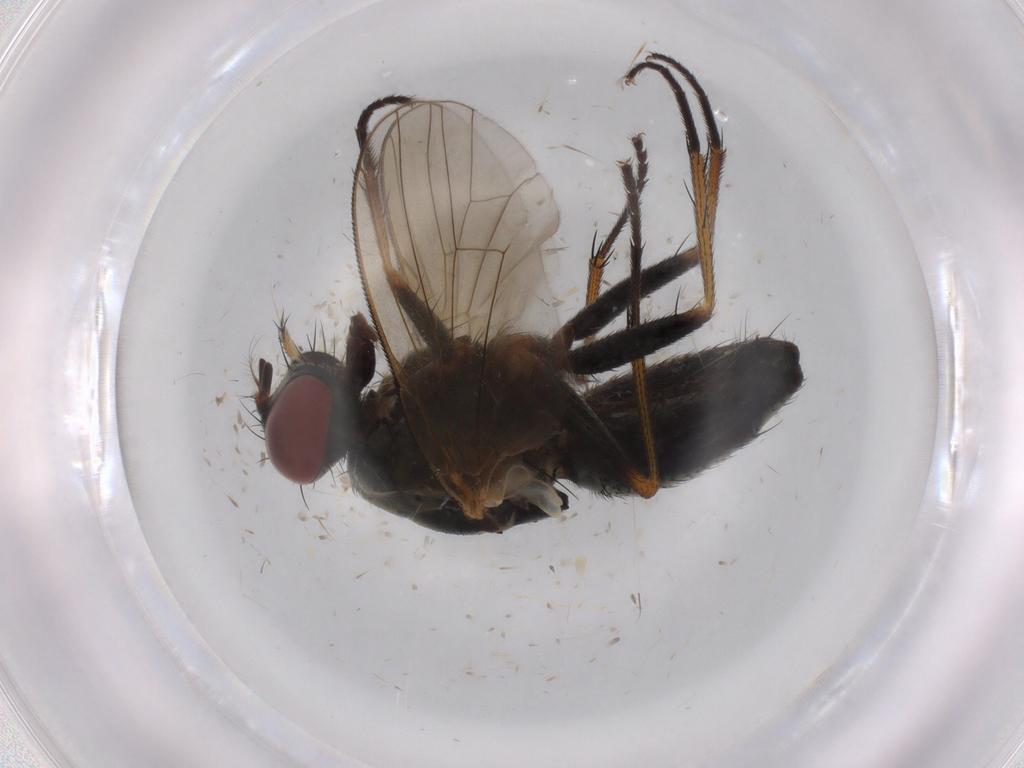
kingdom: Animalia
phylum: Arthropoda
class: Insecta
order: Diptera
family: Muscidae
